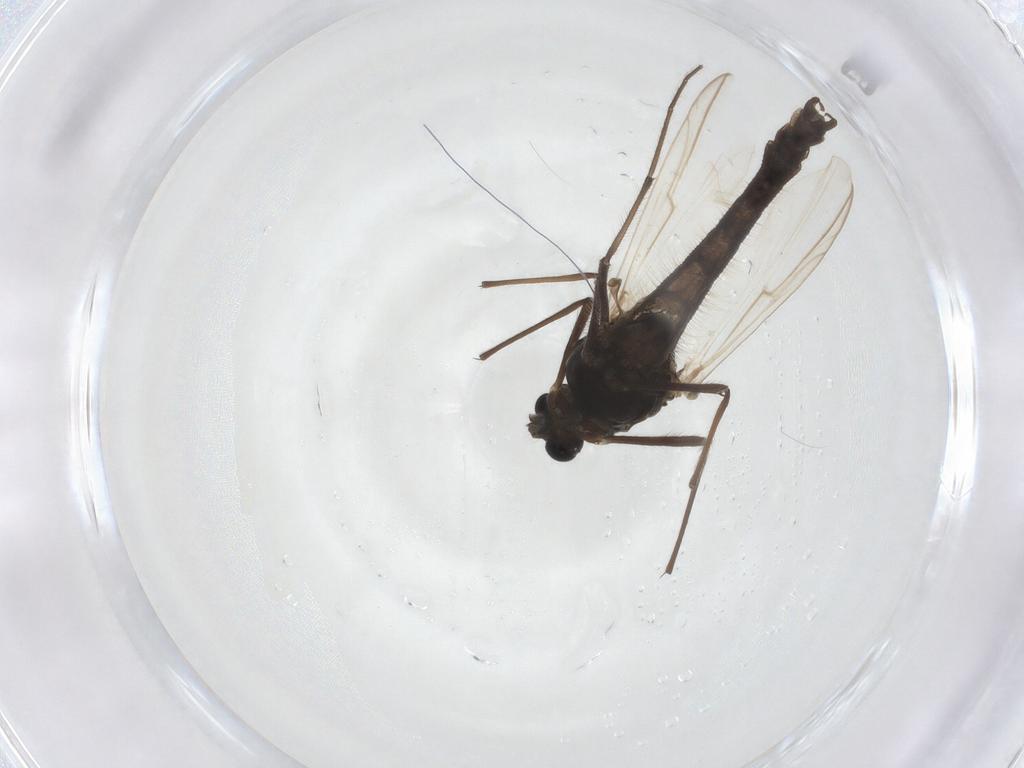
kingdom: Animalia
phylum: Arthropoda
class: Insecta
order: Diptera
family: Chironomidae
